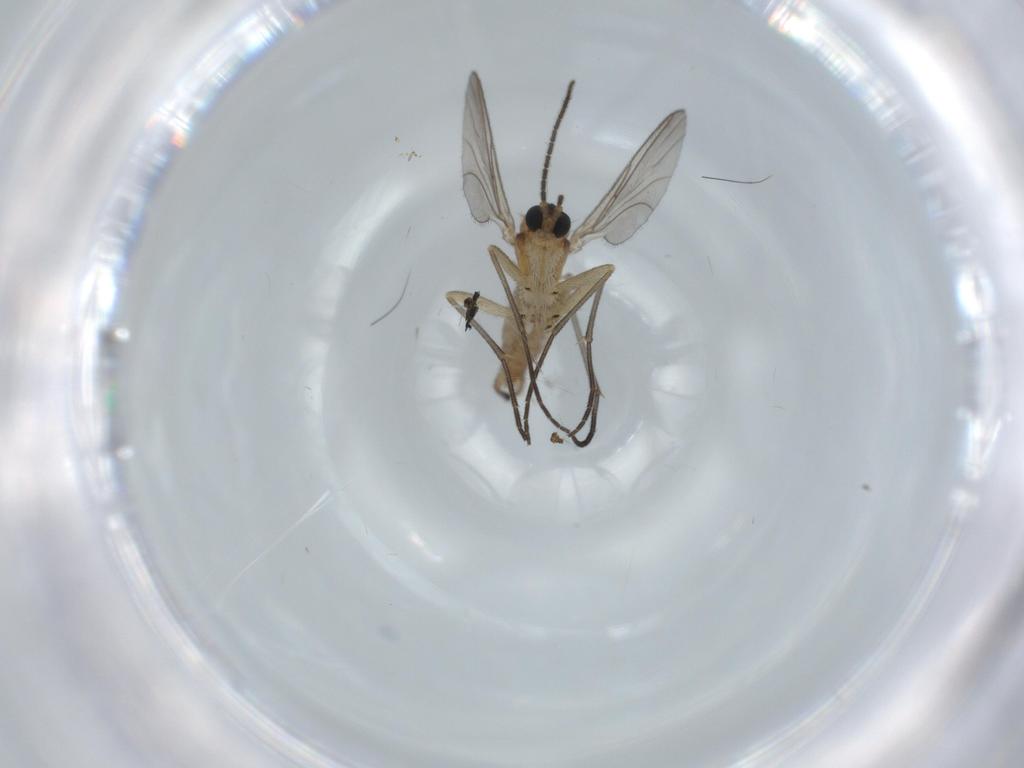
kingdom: Animalia
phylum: Arthropoda
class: Insecta
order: Diptera
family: Sciaridae
